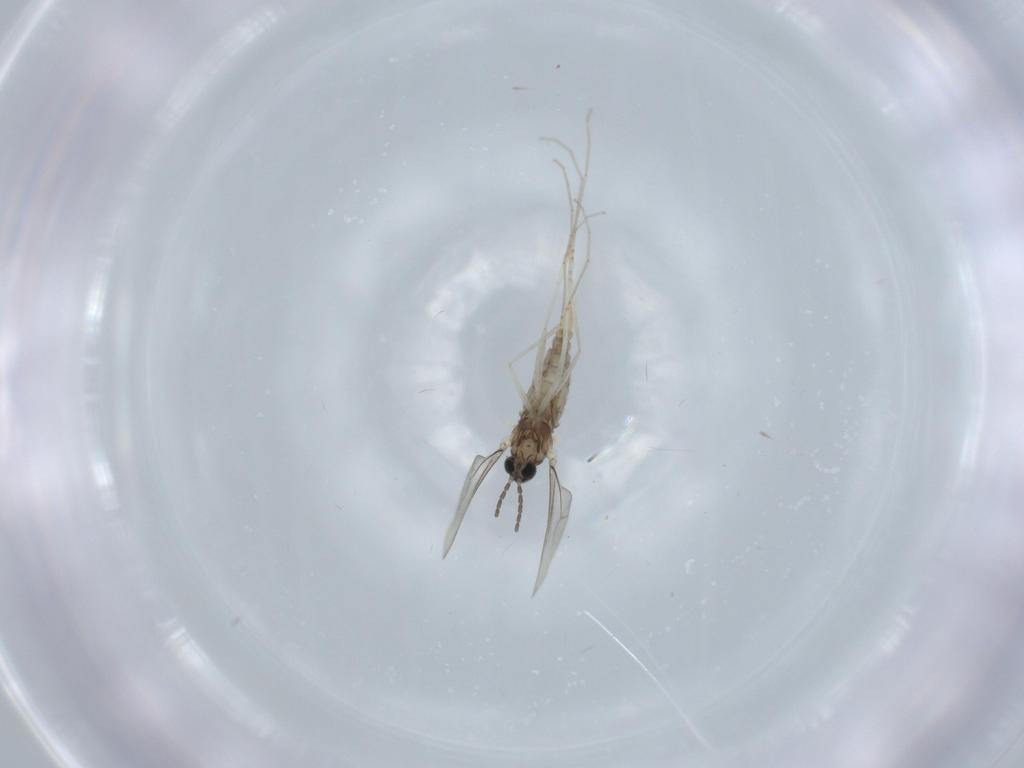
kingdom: Animalia
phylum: Arthropoda
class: Insecta
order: Diptera
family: Cecidomyiidae
